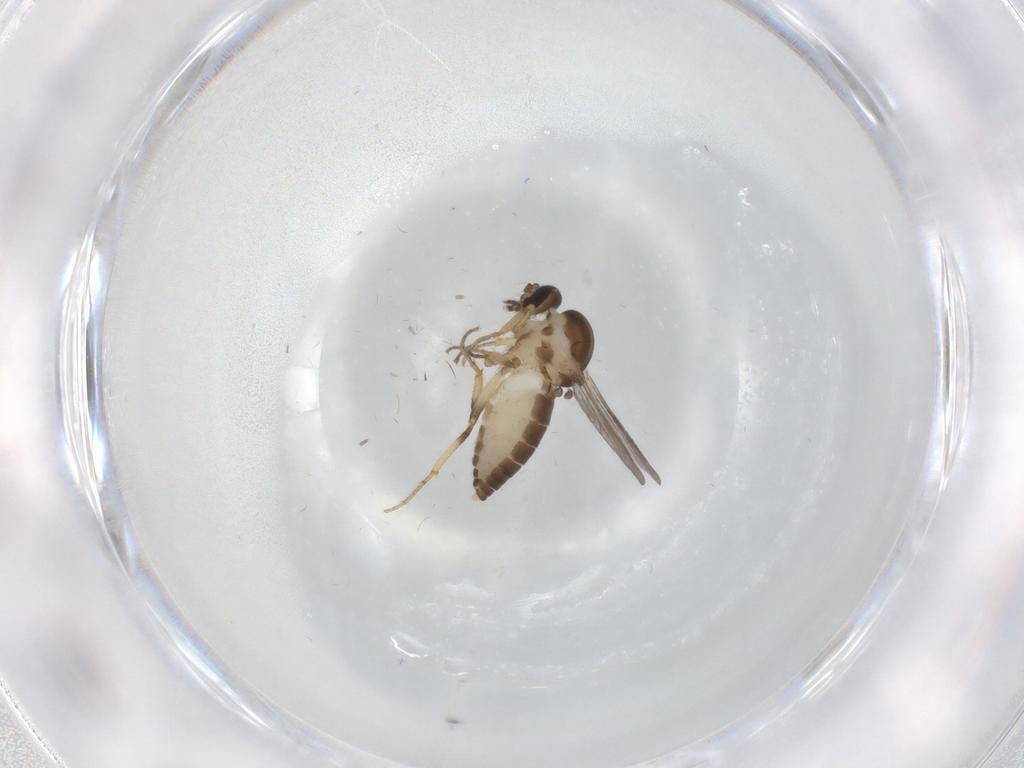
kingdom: Animalia
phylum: Arthropoda
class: Insecta
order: Diptera
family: Ceratopogonidae
